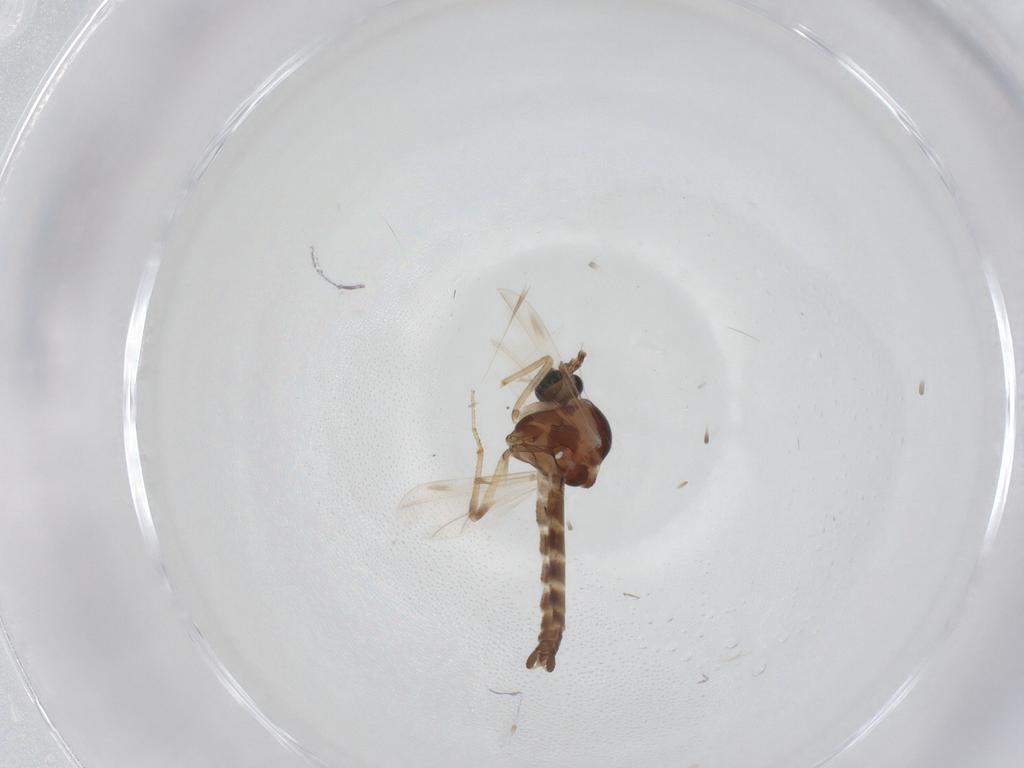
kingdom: Animalia
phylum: Arthropoda
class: Insecta
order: Diptera
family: Ceratopogonidae
